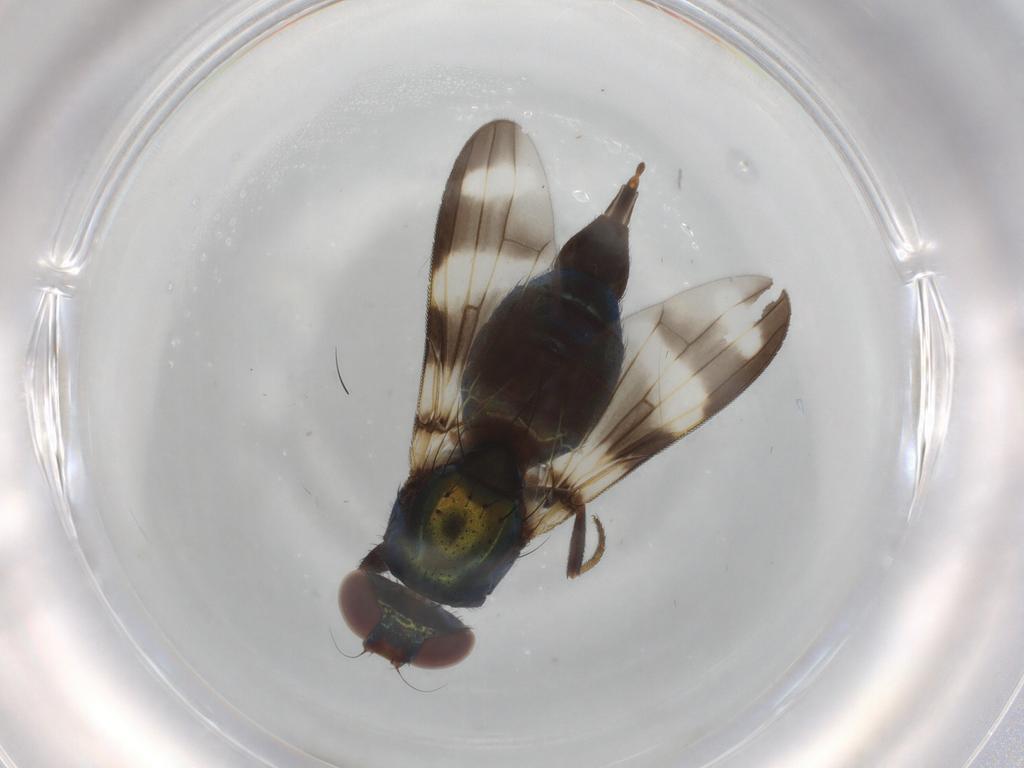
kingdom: Animalia
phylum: Arthropoda
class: Insecta
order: Diptera
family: Ulidiidae
